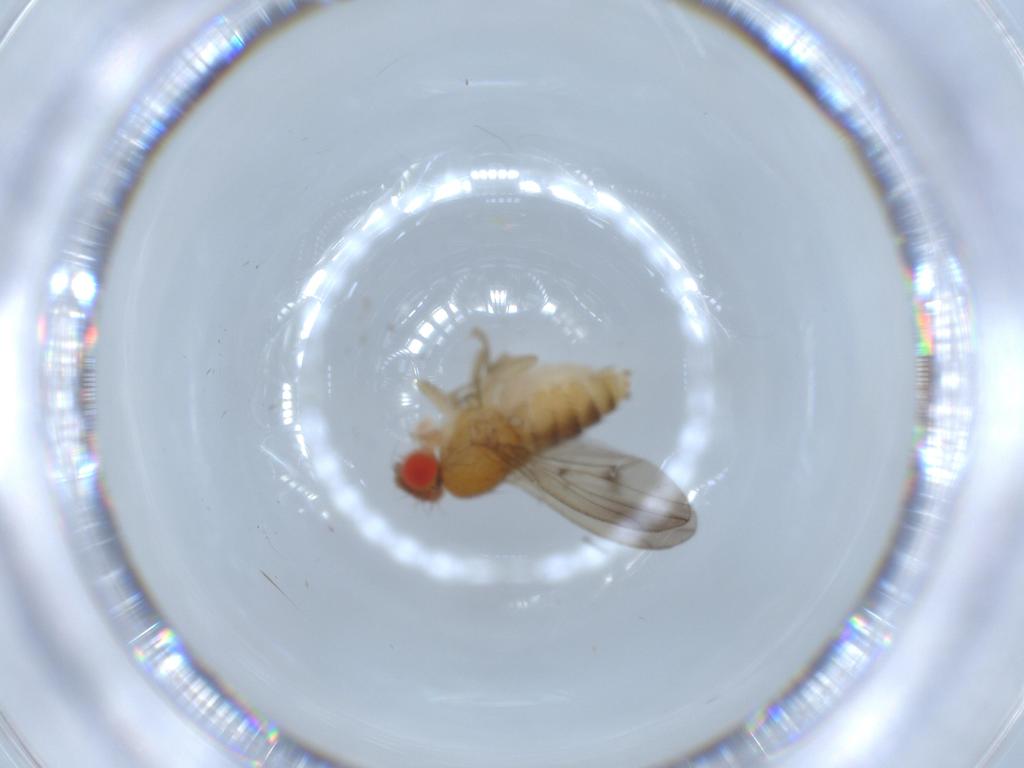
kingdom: Animalia
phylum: Arthropoda
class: Insecta
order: Diptera
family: Drosophilidae
